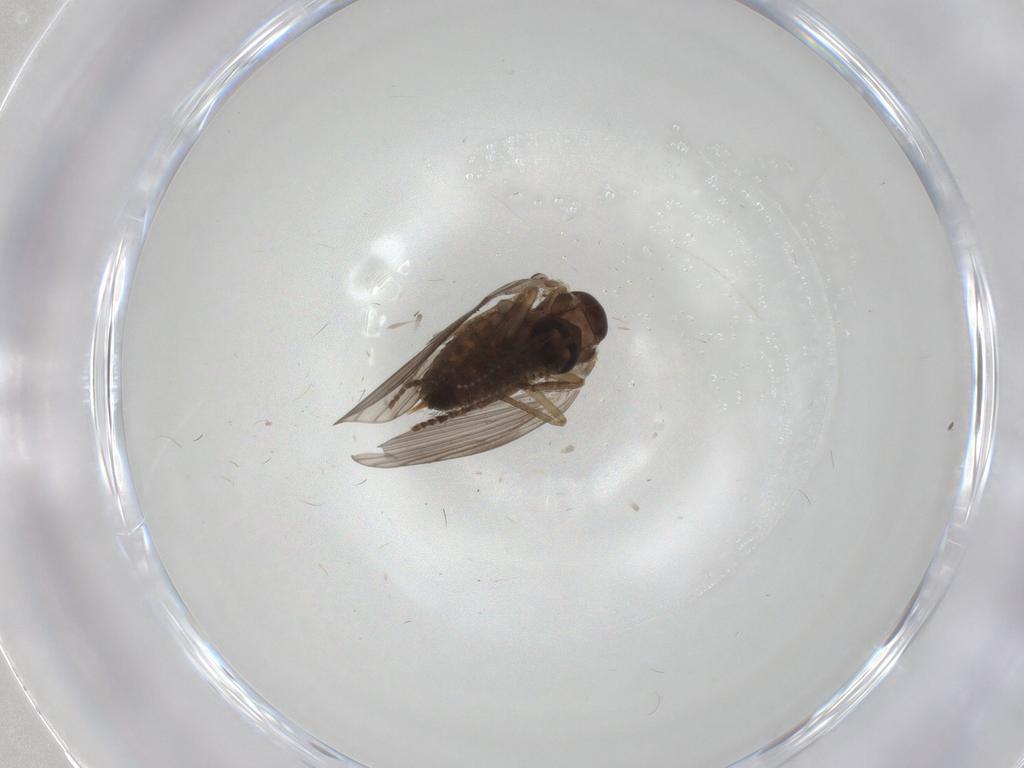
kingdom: Animalia
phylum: Arthropoda
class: Insecta
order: Diptera
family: Psychodidae
